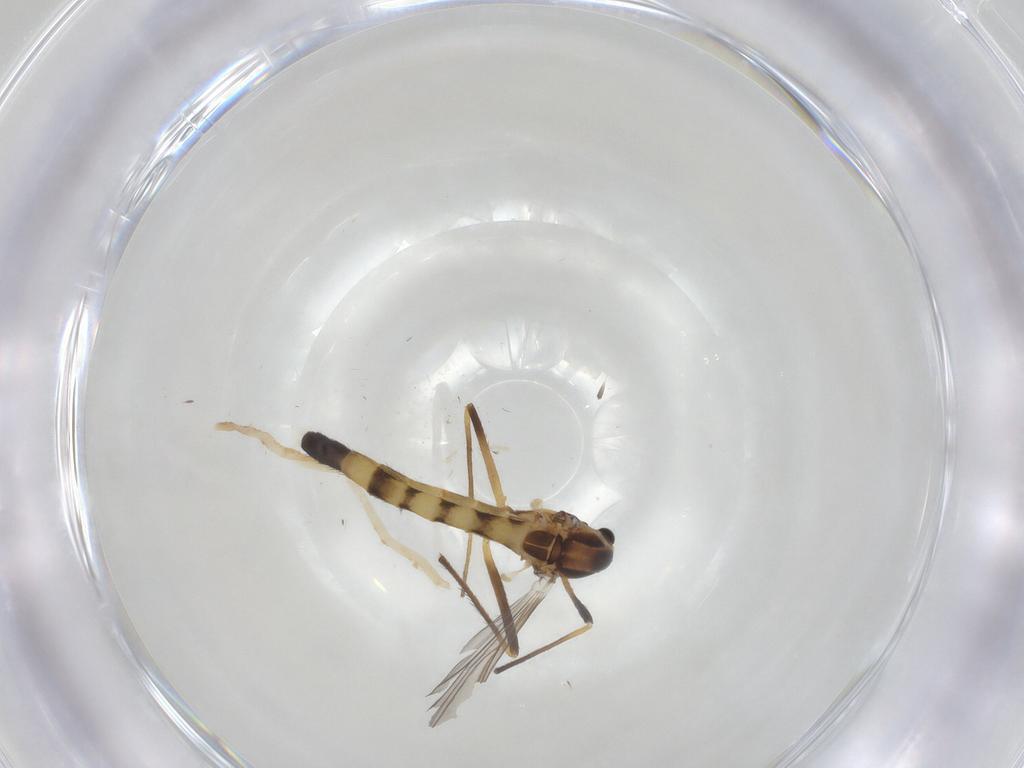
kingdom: Animalia
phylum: Arthropoda
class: Insecta
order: Diptera
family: Chironomidae
